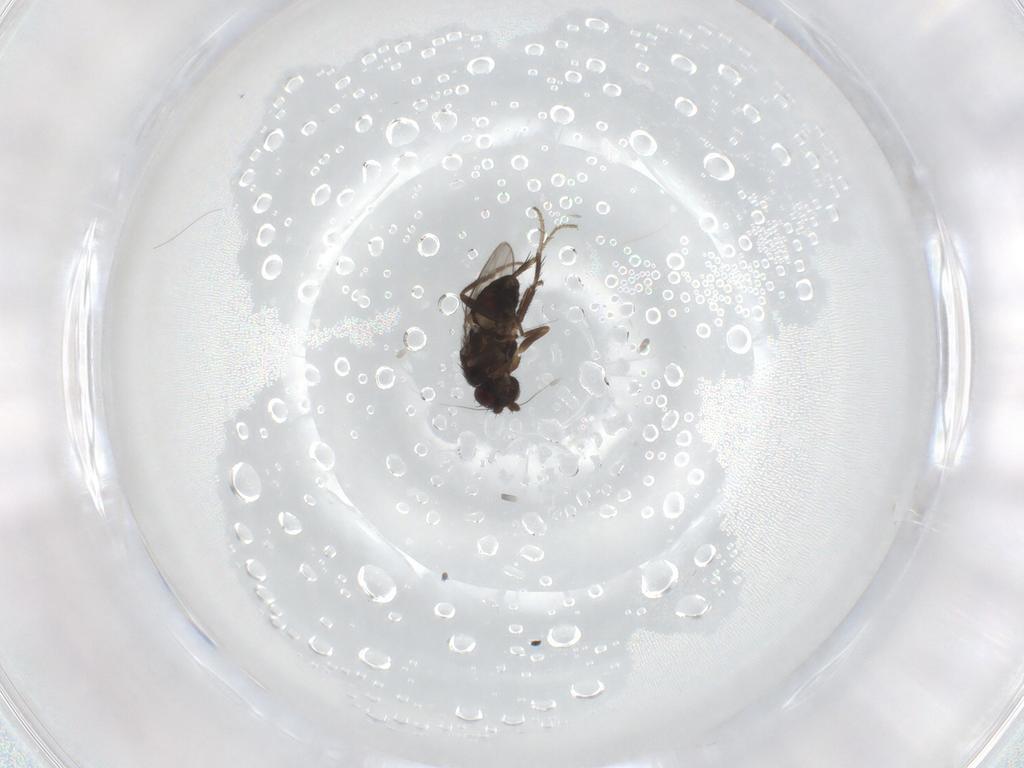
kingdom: Animalia
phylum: Arthropoda
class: Insecta
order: Diptera
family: Sphaeroceridae
